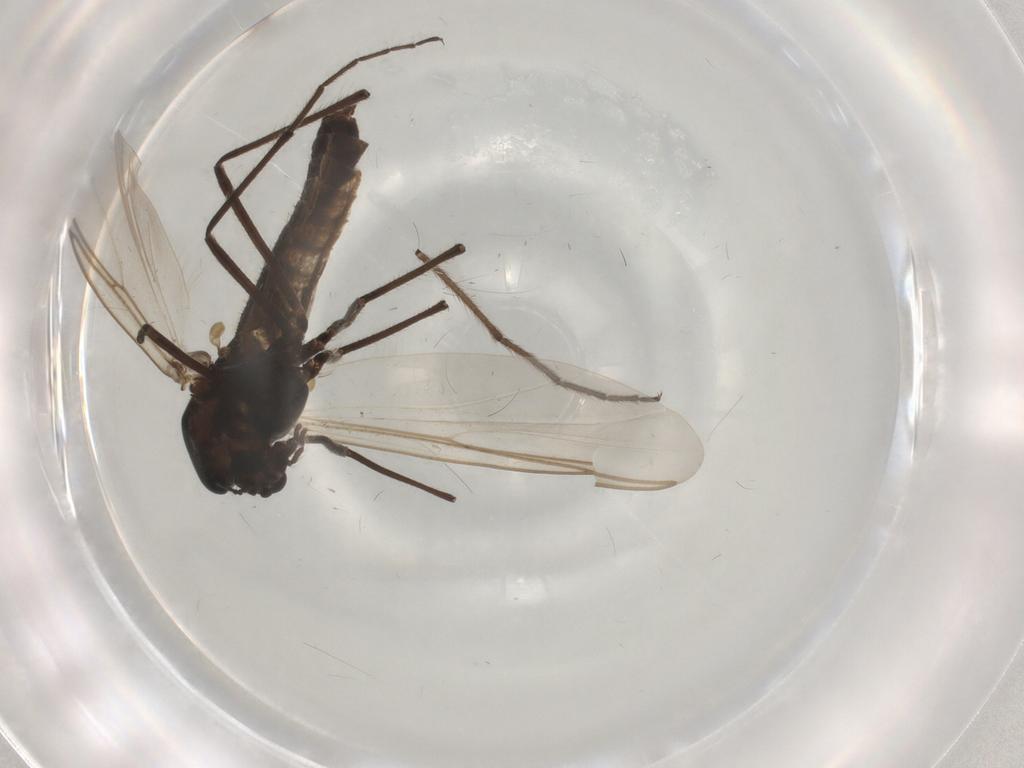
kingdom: Animalia
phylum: Arthropoda
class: Insecta
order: Diptera
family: Chironomidae
